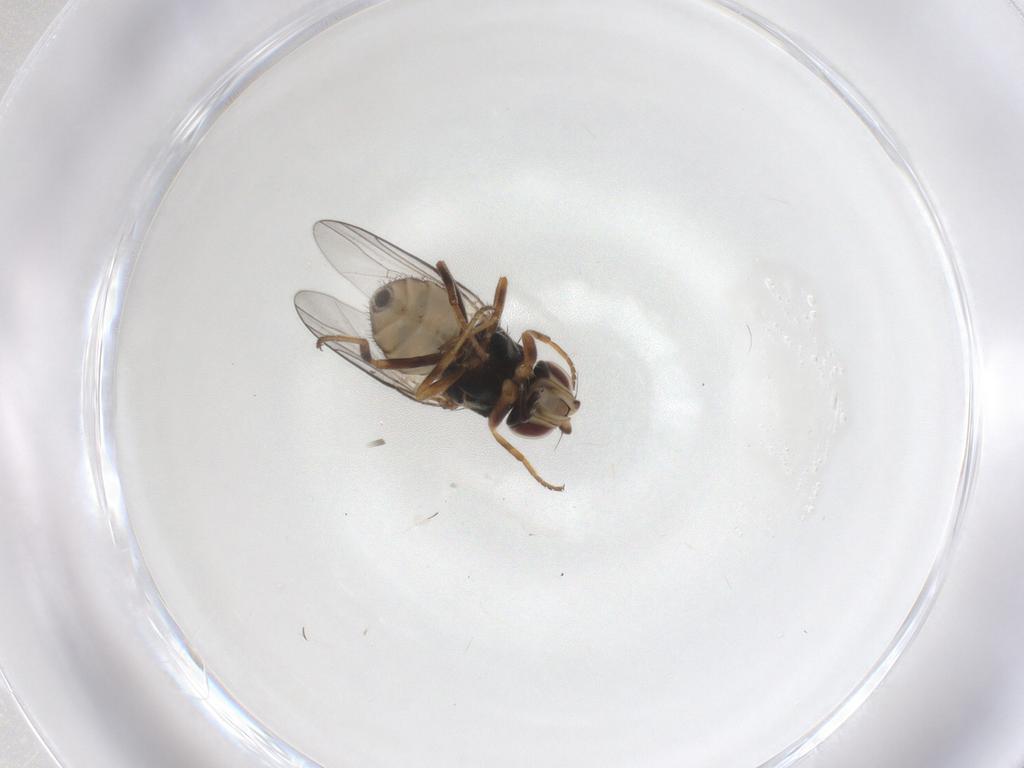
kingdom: Animalia
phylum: Arthropoda
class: Insecta
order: Diptera
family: Chloropidae
